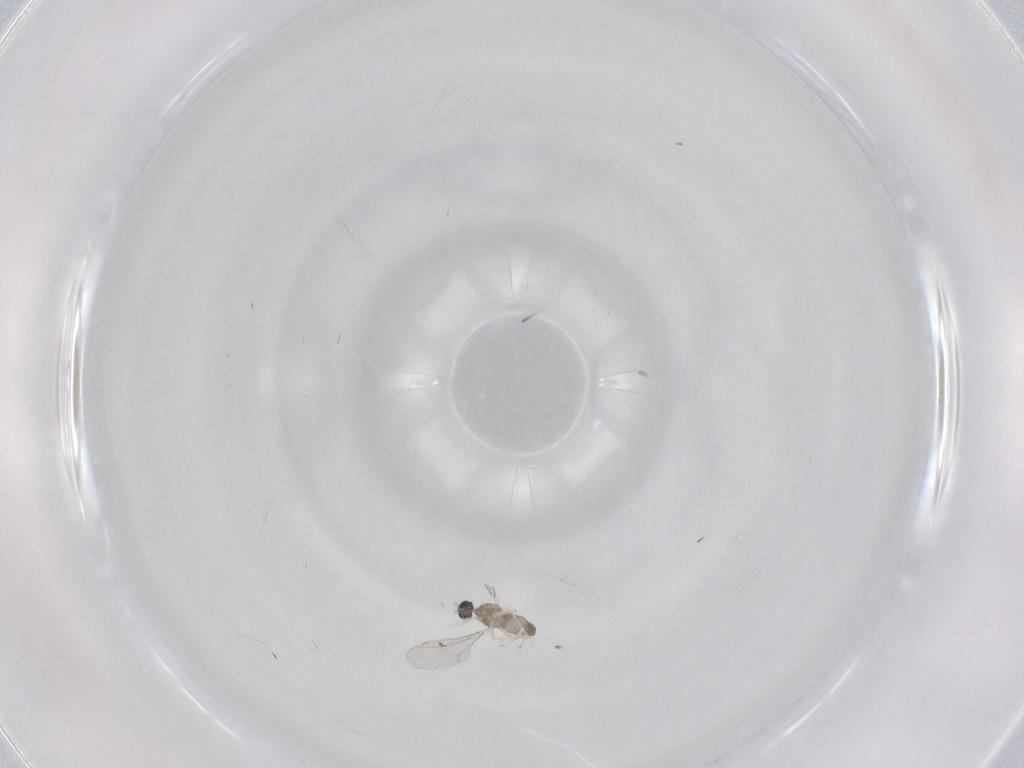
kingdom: Animalia
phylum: Arthropoda
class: Insecta
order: Diptera
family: Cecidomyiidae
